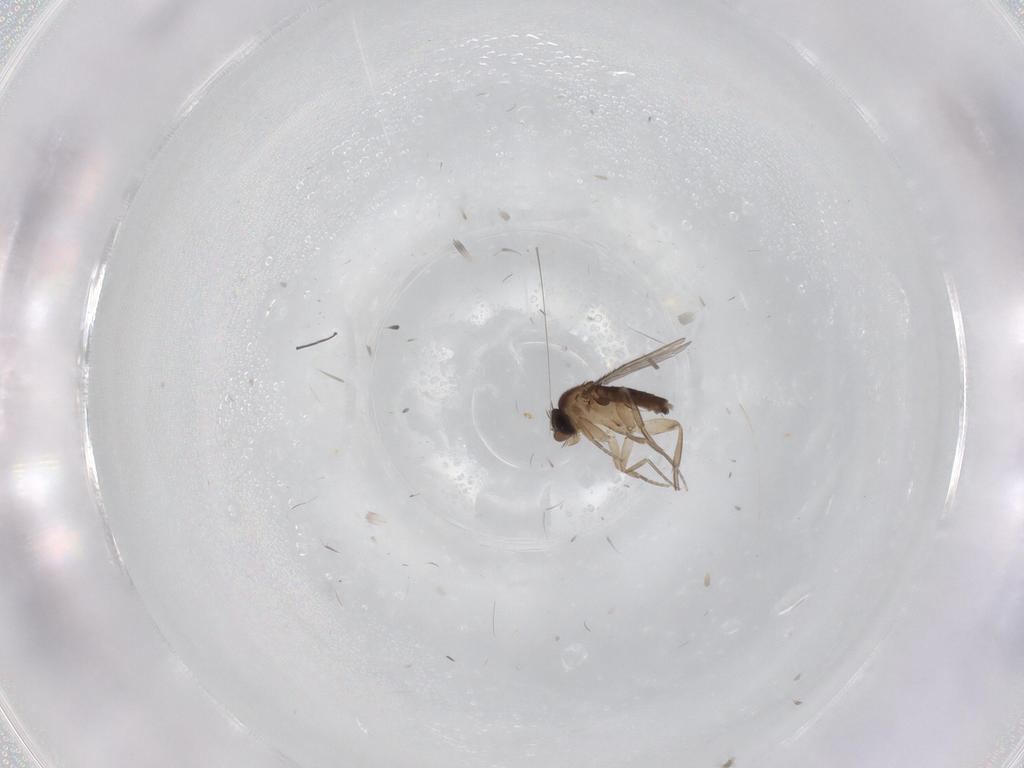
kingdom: Animalia
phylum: Arthropoda
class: Insecta
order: Diptera
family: Phoridae
